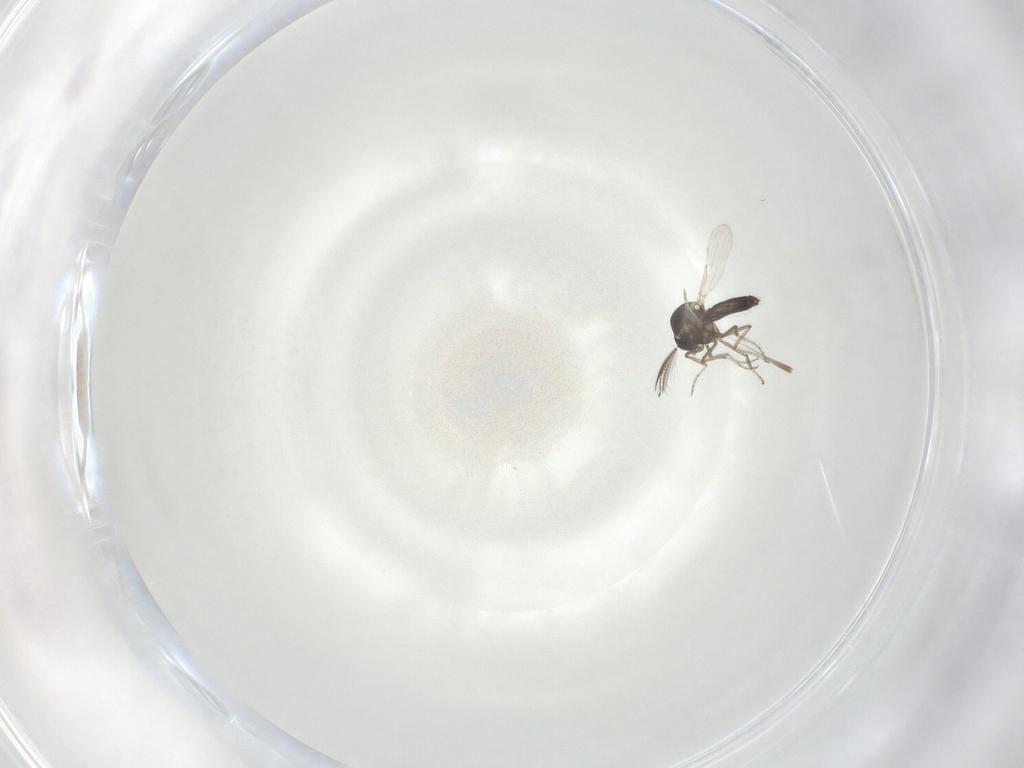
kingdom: Animalia
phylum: Arthropoda
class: Insecta
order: Diptera
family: Ceratopogonidae
